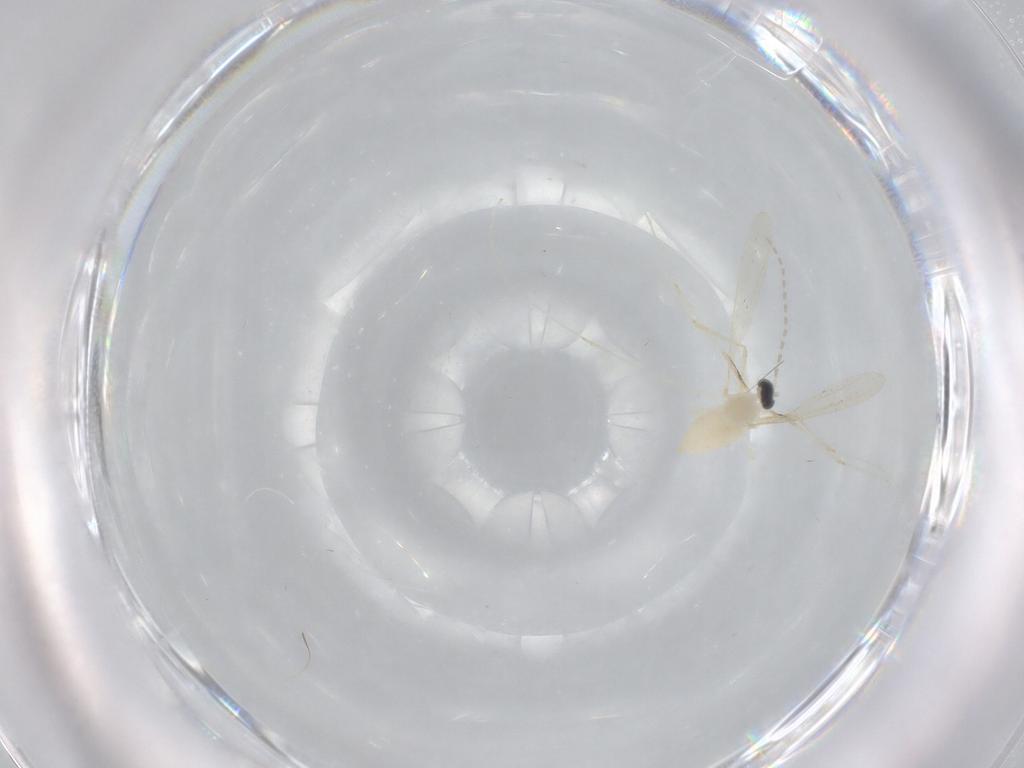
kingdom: Animalia
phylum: Arthropoda
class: Insecta
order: Diptera
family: Cecidomyiidae
